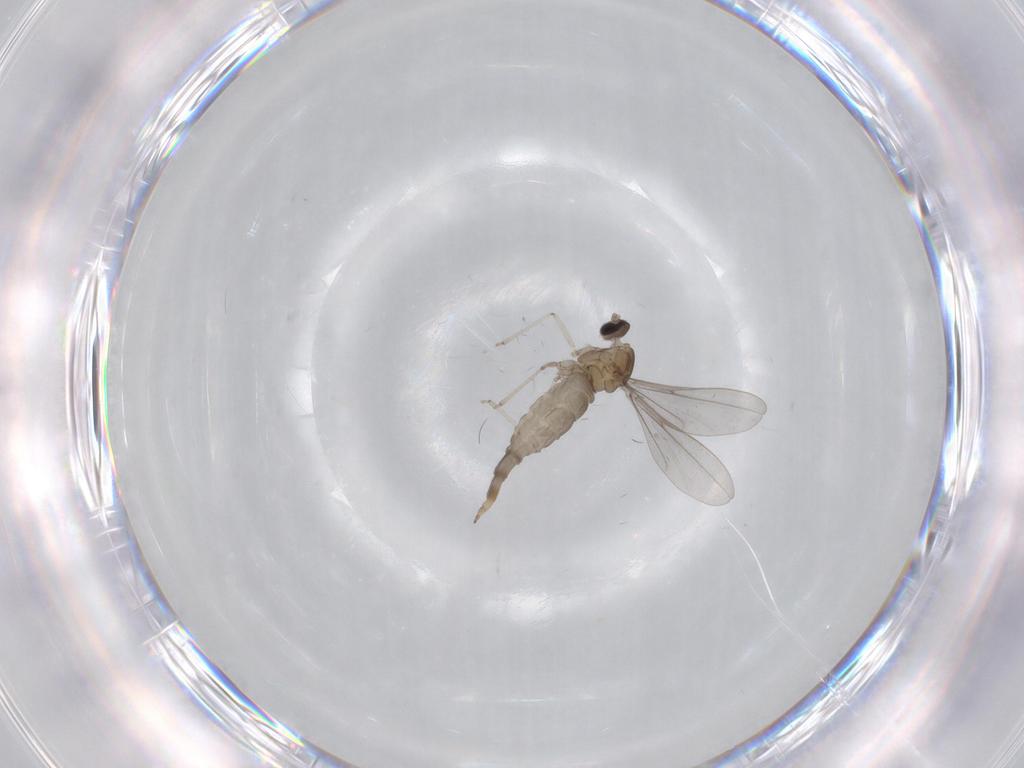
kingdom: Animalia
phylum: Arthropoda
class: Insecta
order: Diptera
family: Cecidomyiidae
